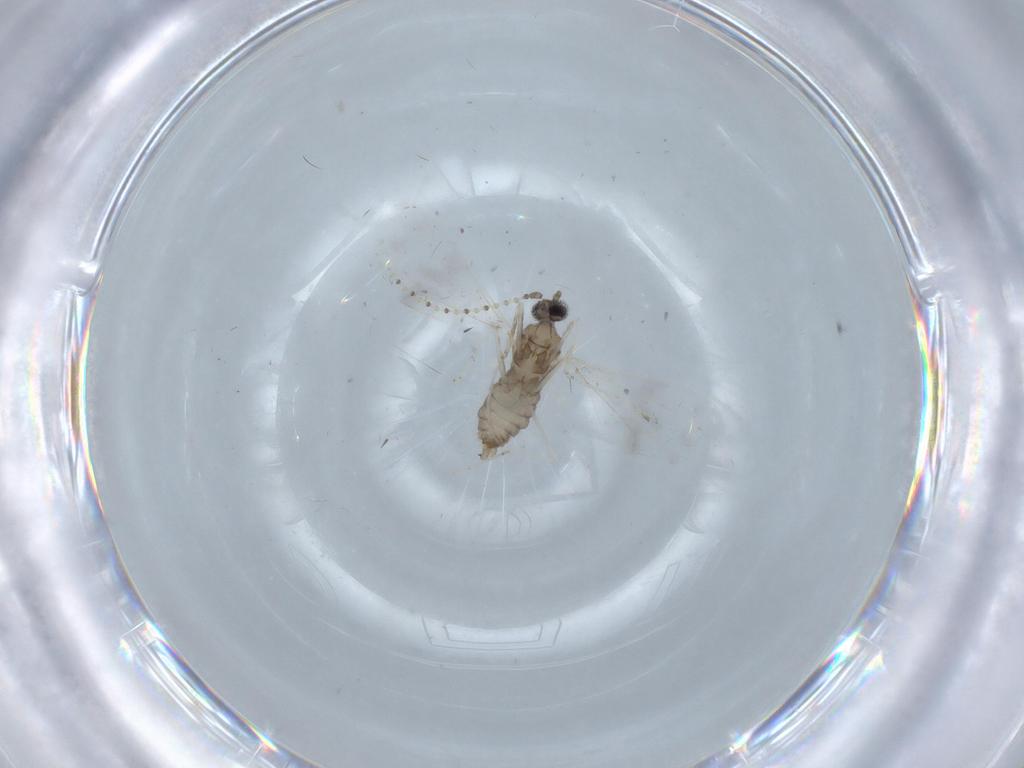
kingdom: Animalia
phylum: Arthropoda
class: Insecta
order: Diptera
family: Cecidomyiidae
